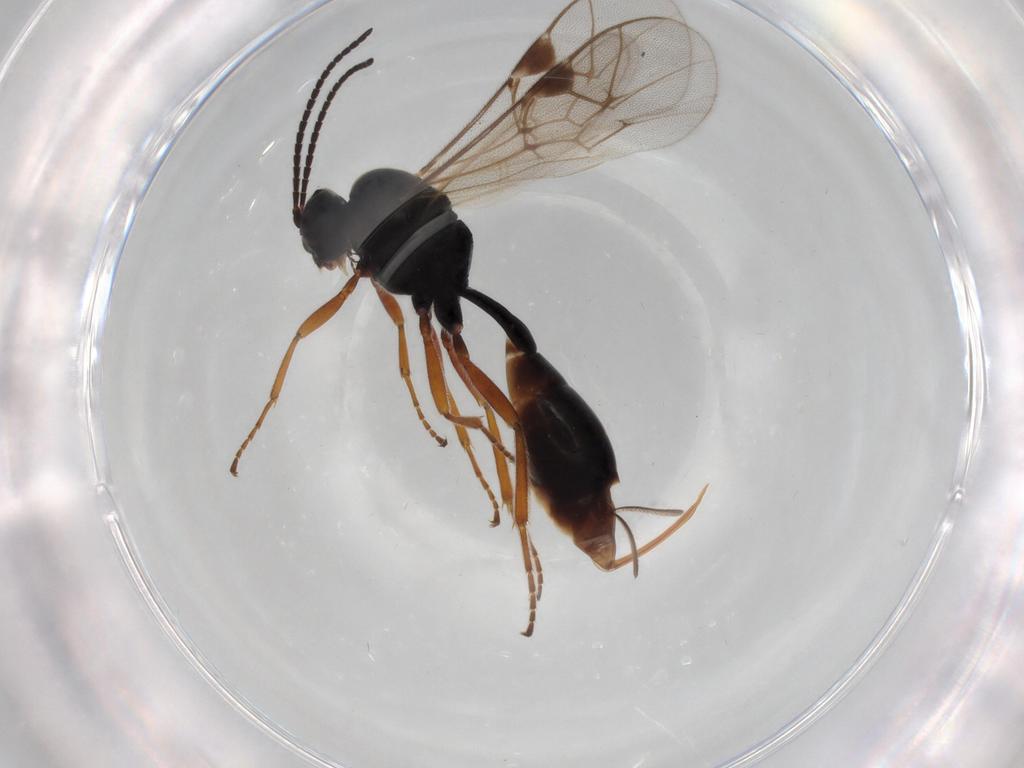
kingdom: Animalia
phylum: Arthropoda
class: Insecta
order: Hymenoptera
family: Ichneumonidae
